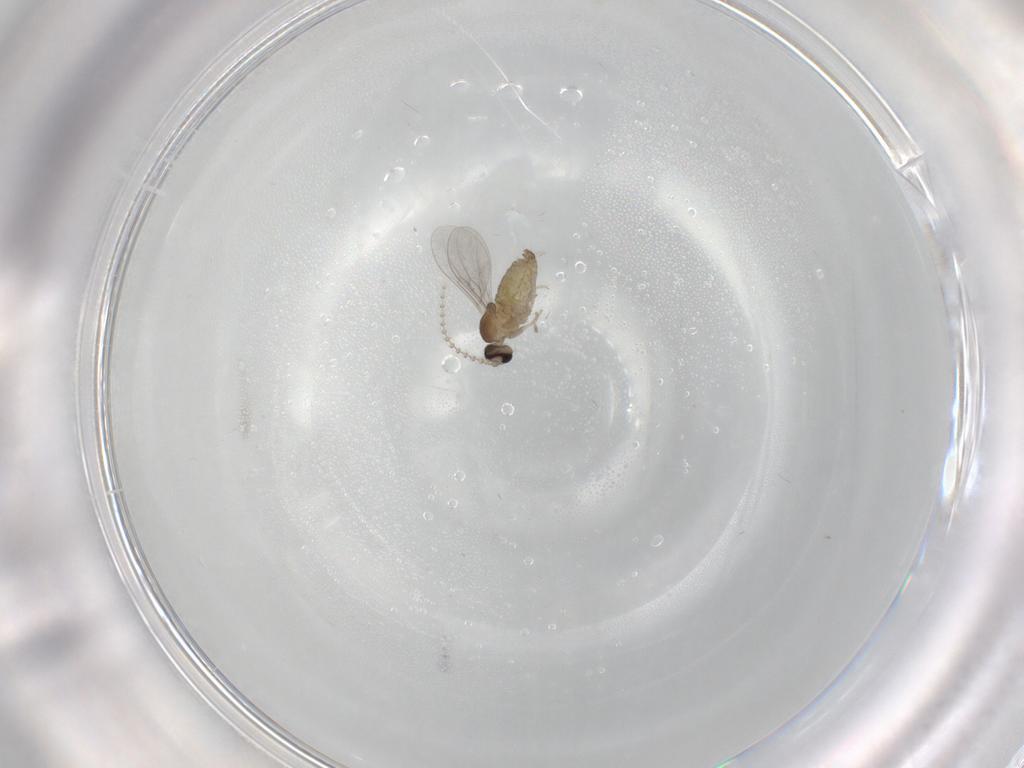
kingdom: Animalia
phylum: Arthropoda
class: Insecta
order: Diptera
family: Cecidomyiidae
